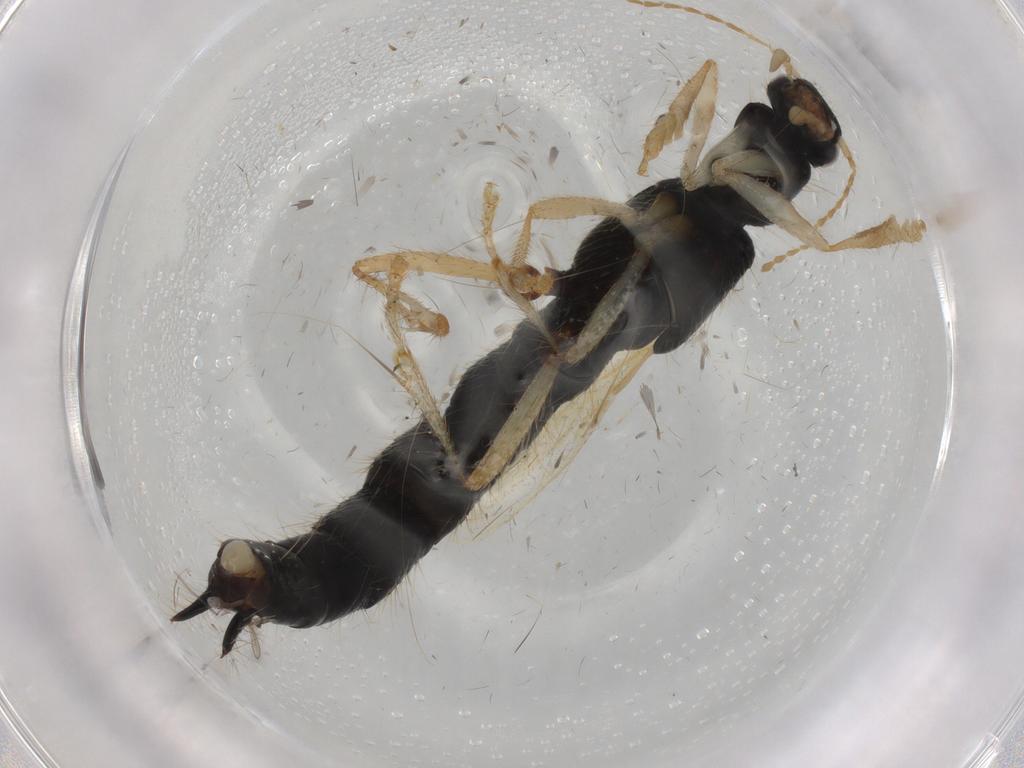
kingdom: Animalia
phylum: Arthropoda
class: Insecta
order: Coleoptera
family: Staphylinidae
